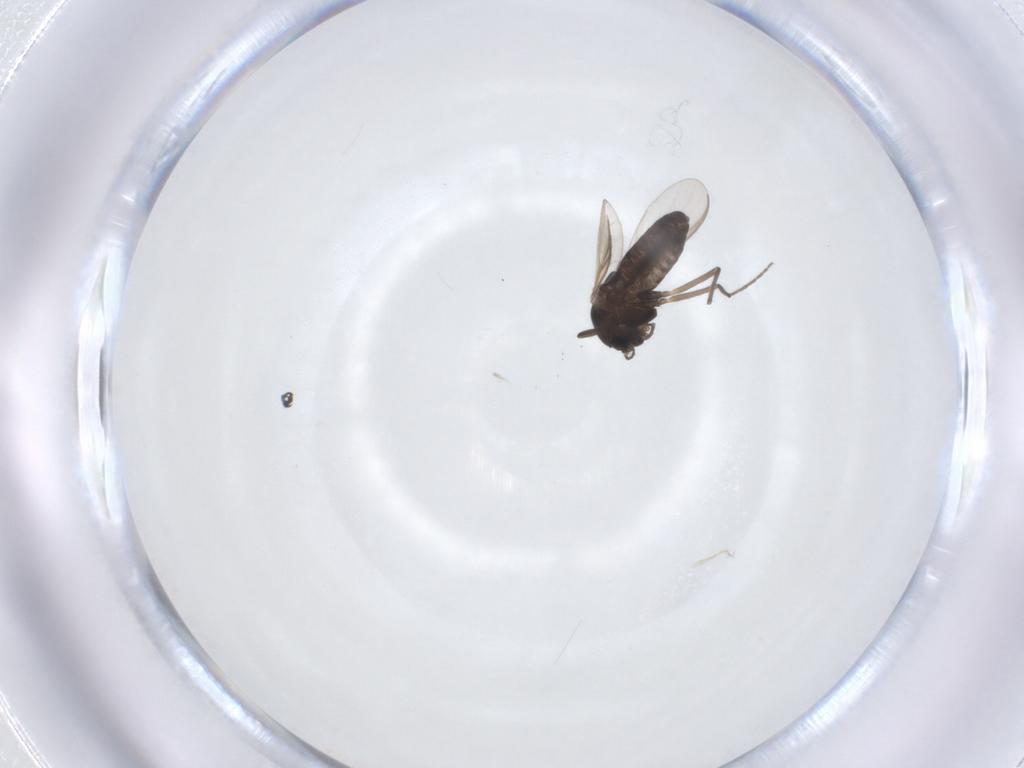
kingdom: Animalia
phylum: Arthropoda
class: Insecta
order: Diptera
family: Chironomidae
